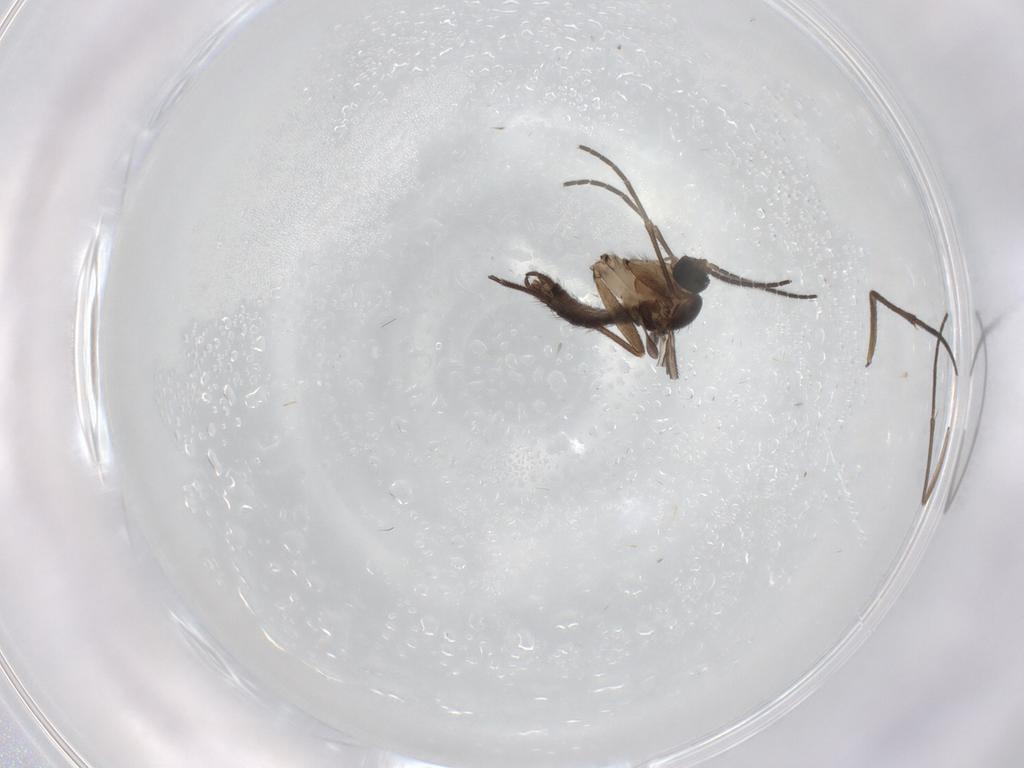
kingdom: Animalia
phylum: Arthropoda
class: Insecta
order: Diptera
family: Sciaridae
